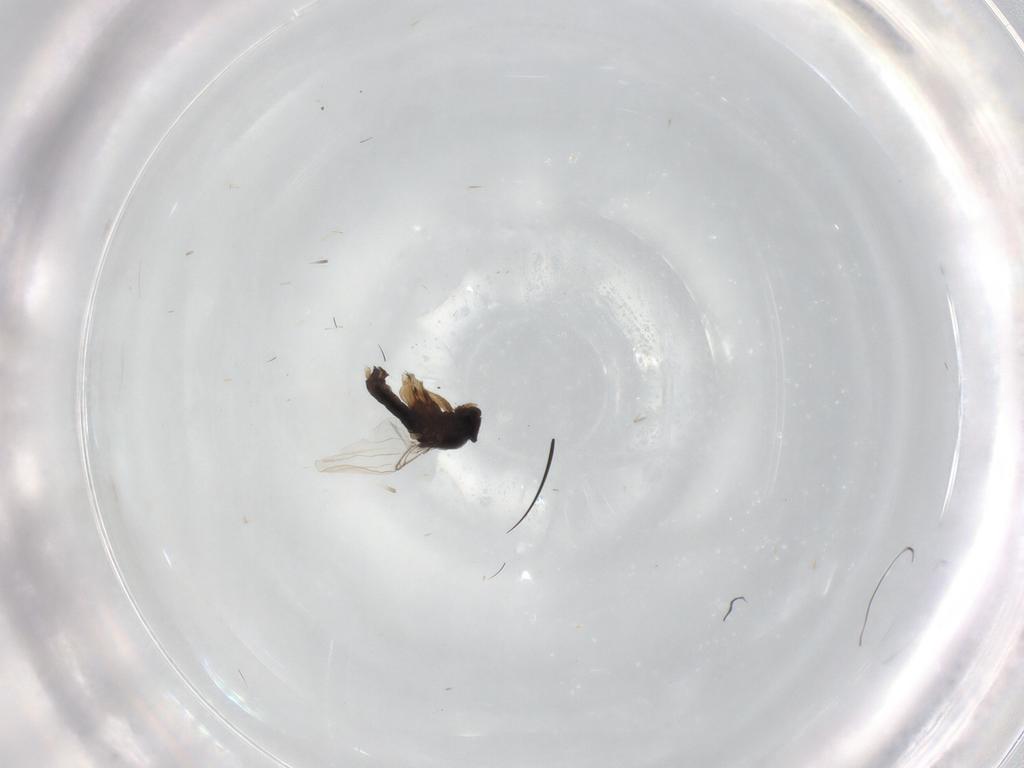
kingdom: Animalia
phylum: Arthropoda
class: Insecta
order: Diptera
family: Phoridae
